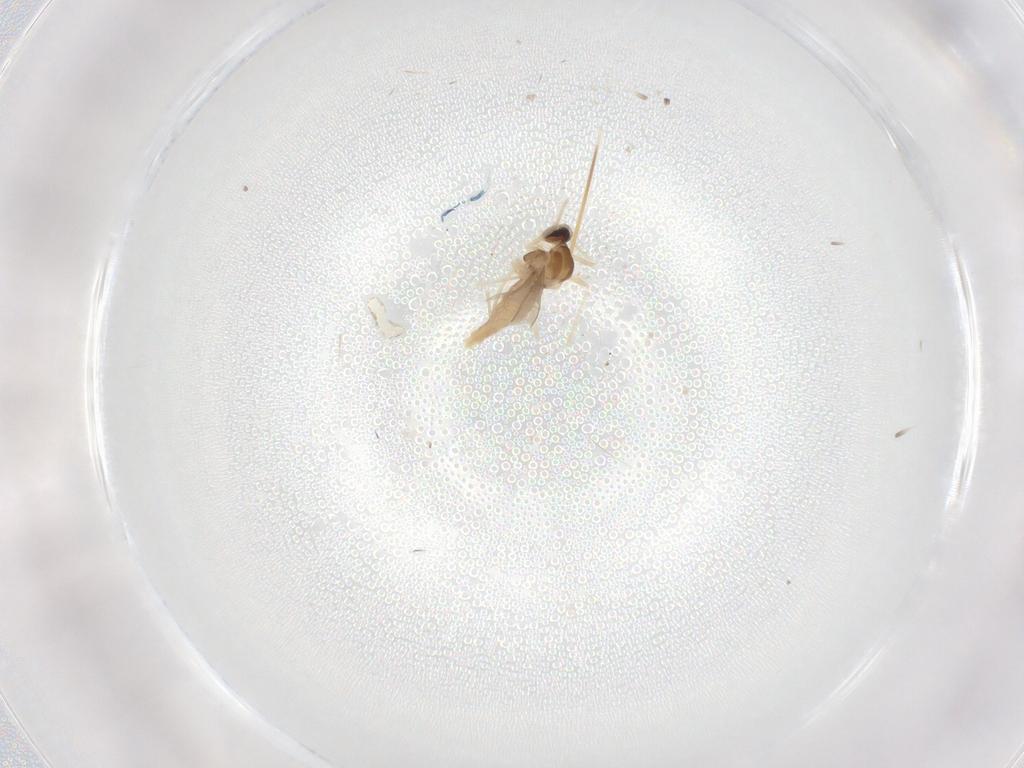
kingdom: Animalia
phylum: Arthropoda
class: Insecta
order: Diptera
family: Cecidomyiidae
